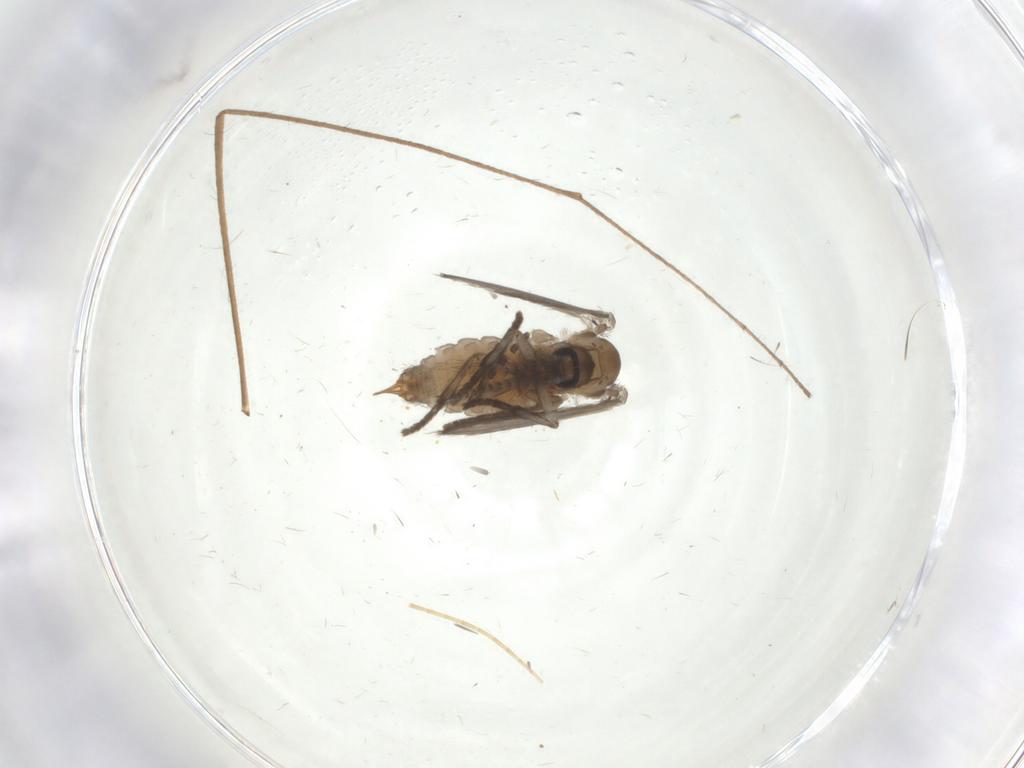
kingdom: Animalia
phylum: Arthropoda
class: Insecta
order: Diptera
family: Psychodidae
